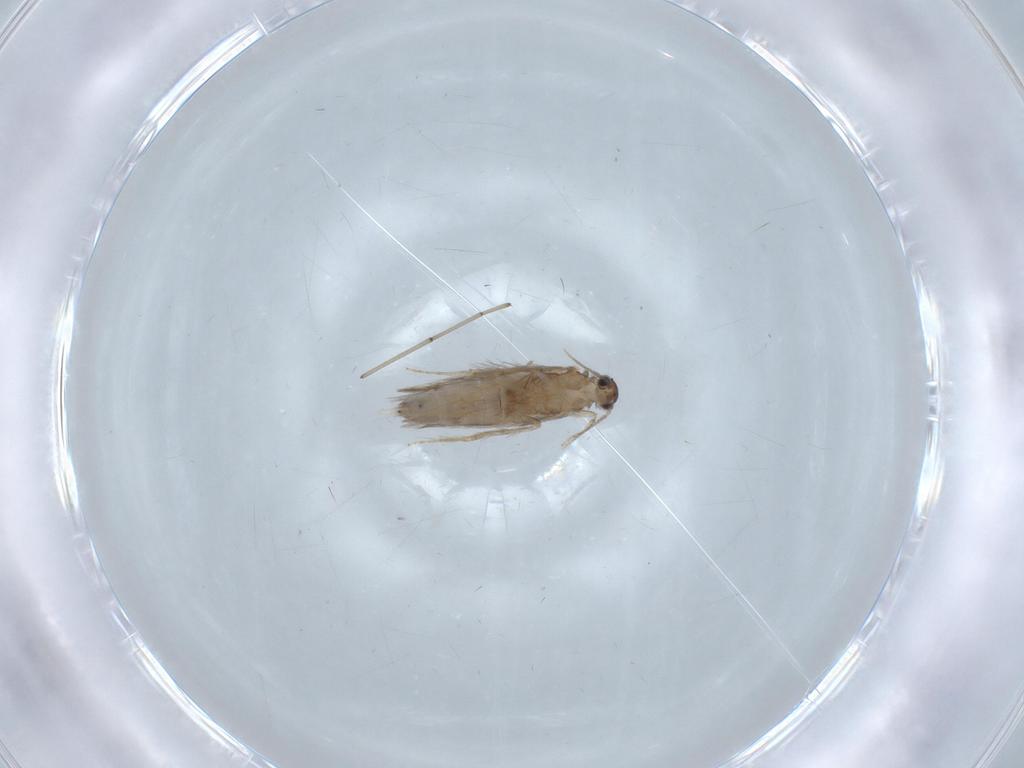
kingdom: Animalia
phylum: Arthropoda
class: Insecta
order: Trichoptera
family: Hydroptilidae
